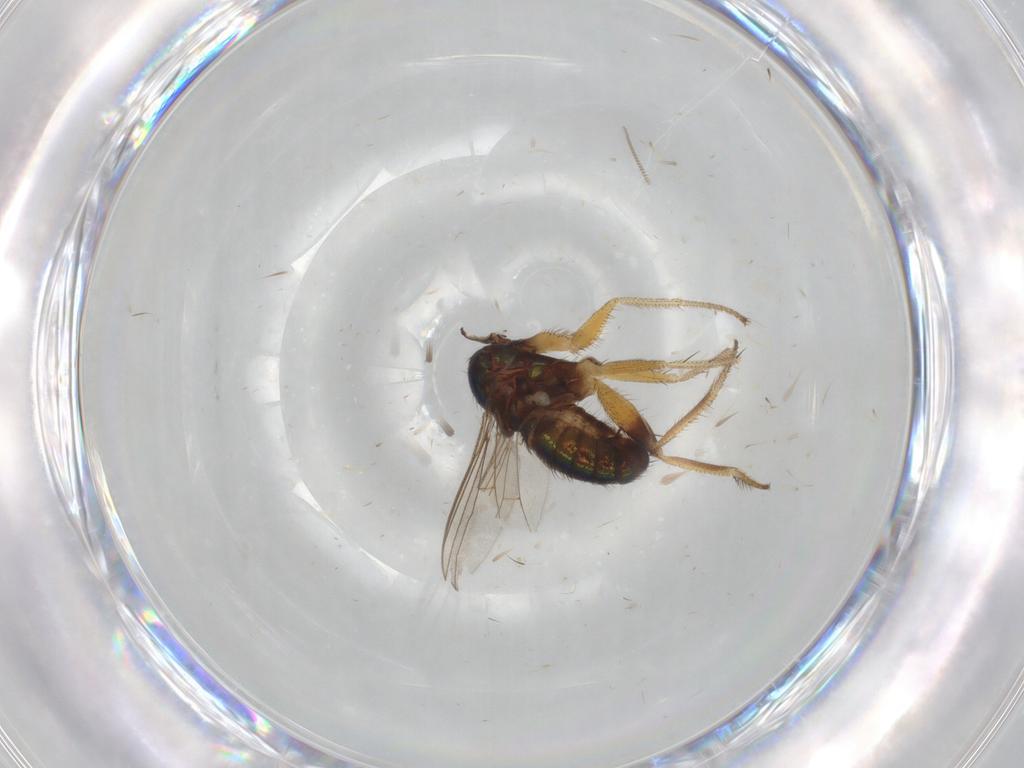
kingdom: Animalia
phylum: Arthropoda
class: Insecta
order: Diptera
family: Dolichopodidae
